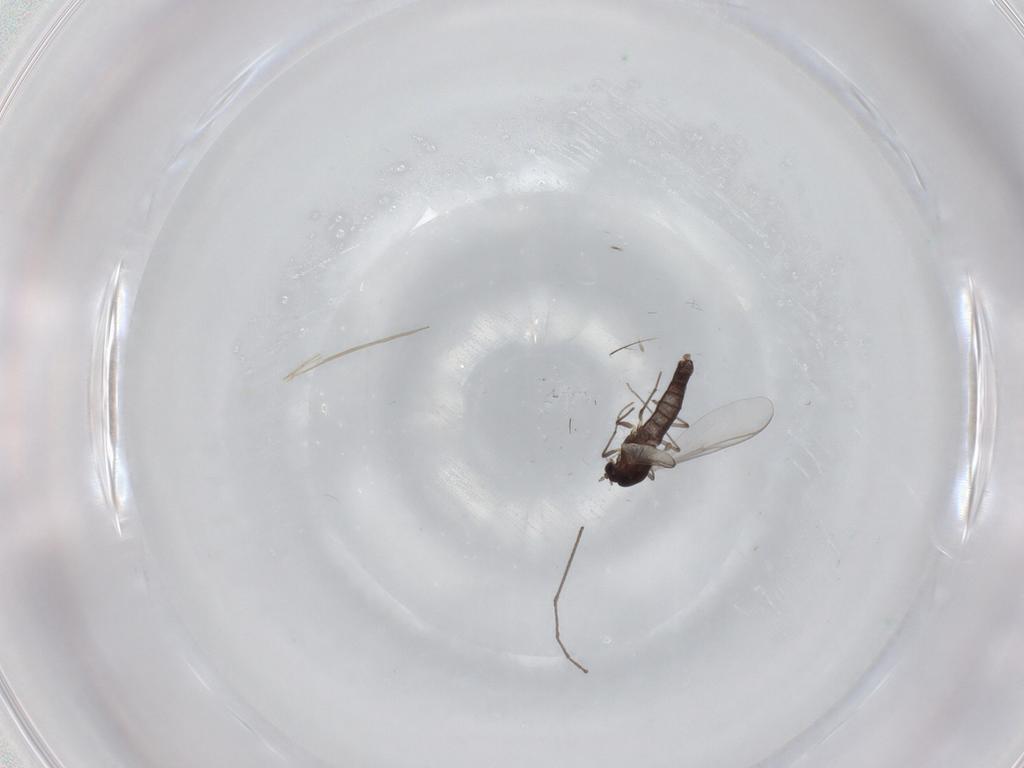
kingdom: Animalia
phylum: Arthropoda
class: Insecta
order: Diptera
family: Chironomidae
